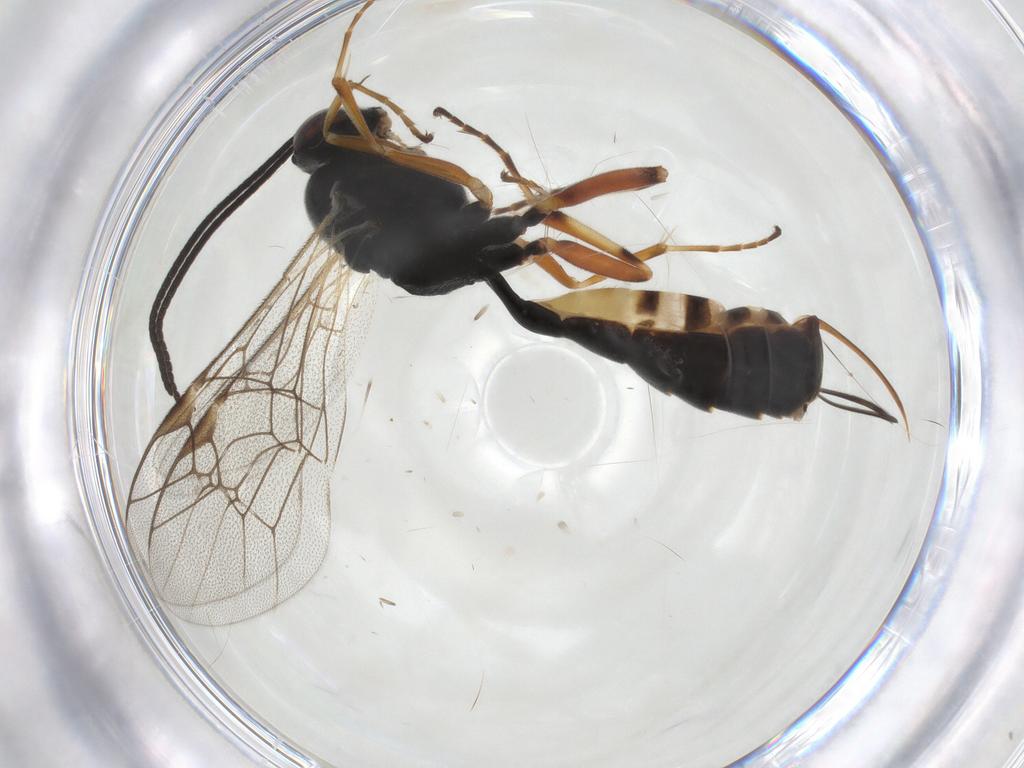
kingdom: Animalia
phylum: Arthropoda
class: Insecta
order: Hymenoptera
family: Ichneumonidae
